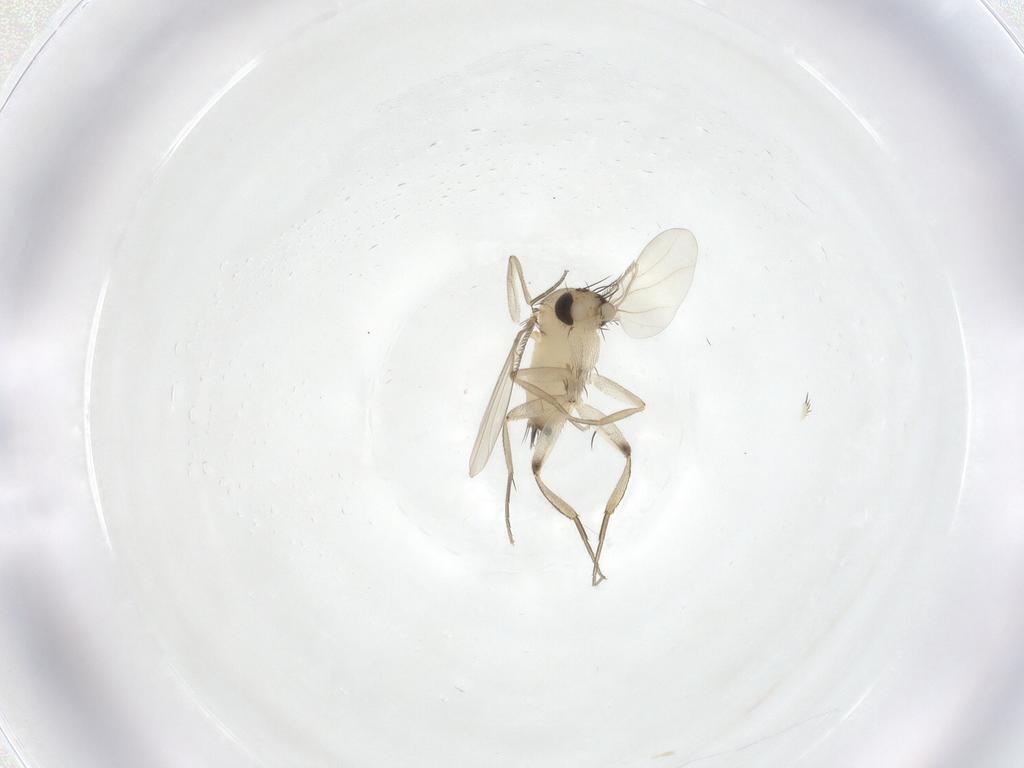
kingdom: Animalia
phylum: Arthropoda
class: Insecta
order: Diptera
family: Phoridae
